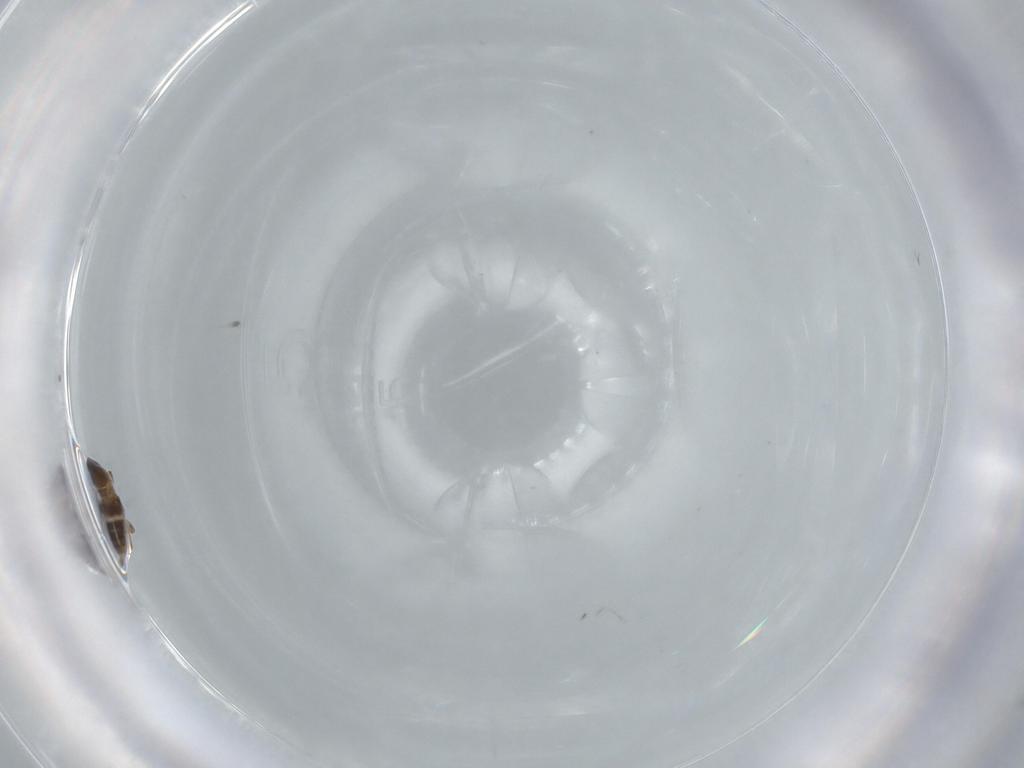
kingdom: Animalia
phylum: Arthropoda
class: Insecta
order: Diptera
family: Phoridae
